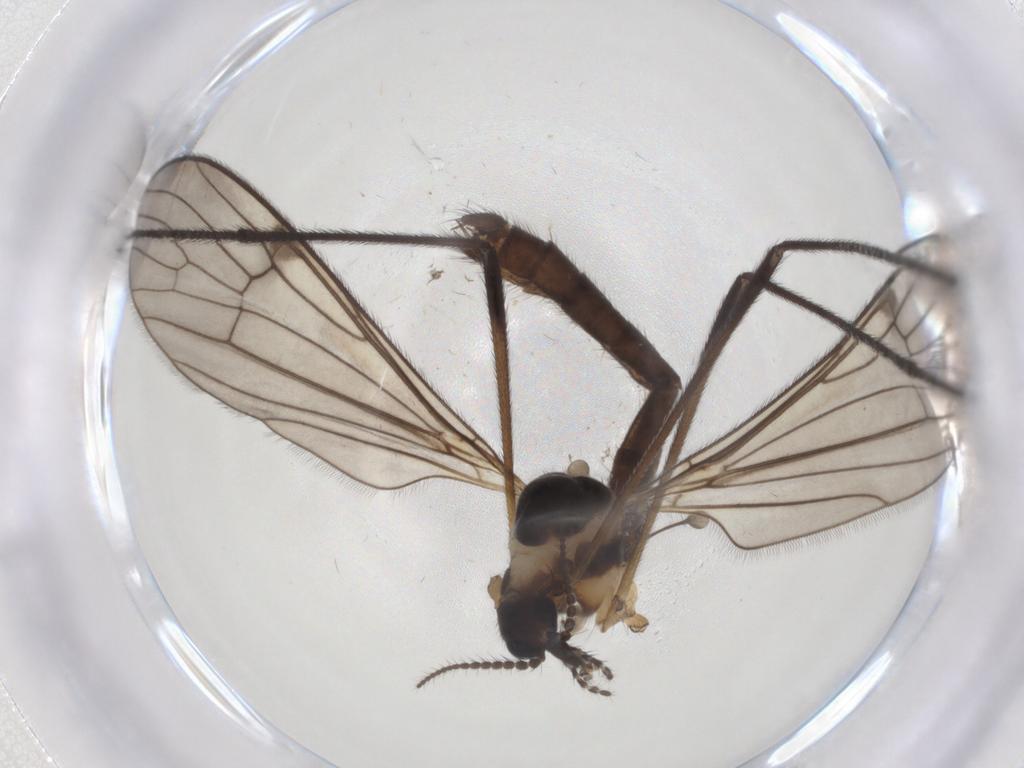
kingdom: Animalia
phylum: Arthropoda
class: Insecta
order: Diptera
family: Limoniidae
